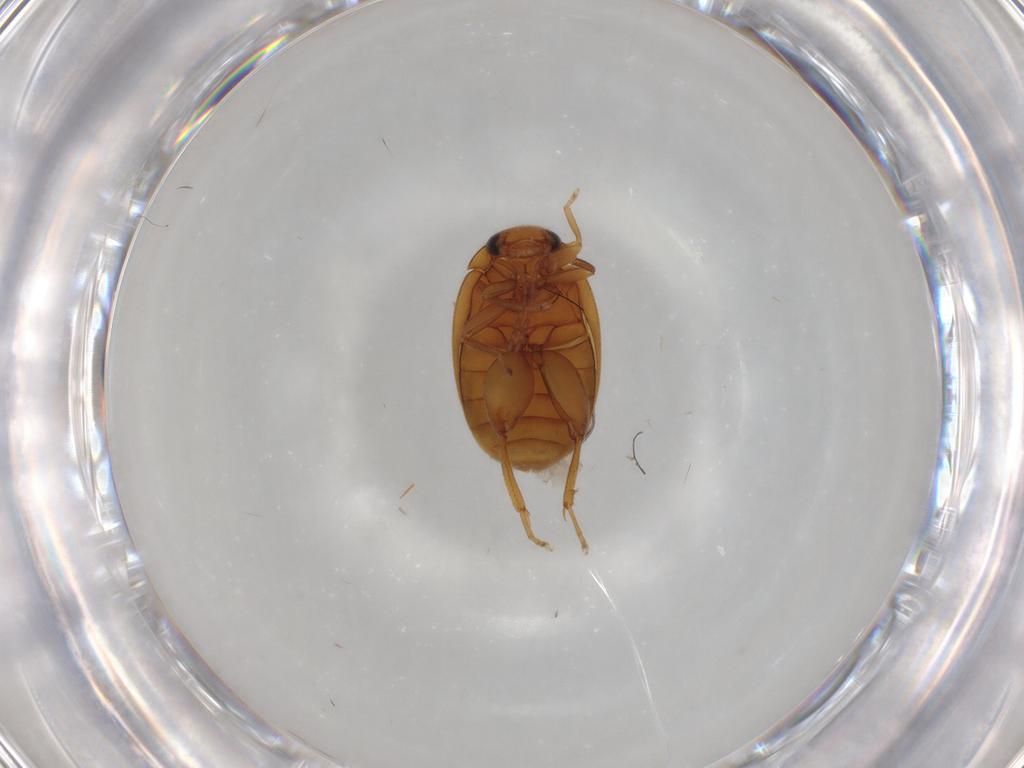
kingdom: Animalia
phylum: Arthropoda
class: Insecta
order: Coleoptera
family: Scirtidae
